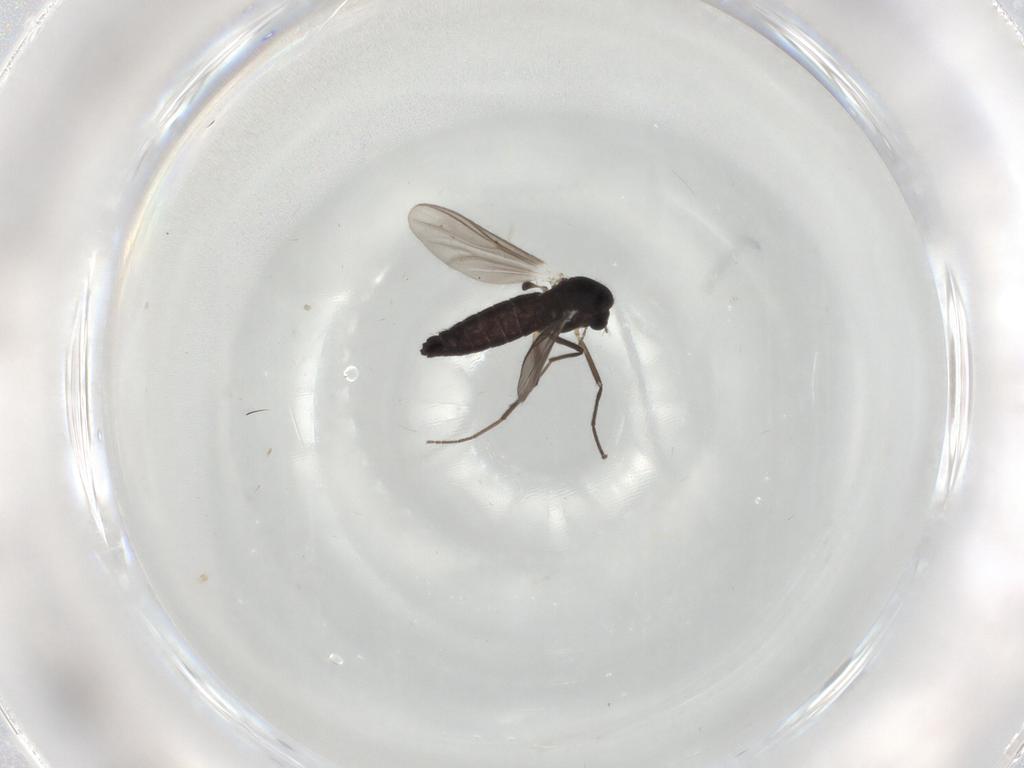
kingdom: Animalia
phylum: Arthropoda
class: Insecta
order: Diptera
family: Chironomidae
